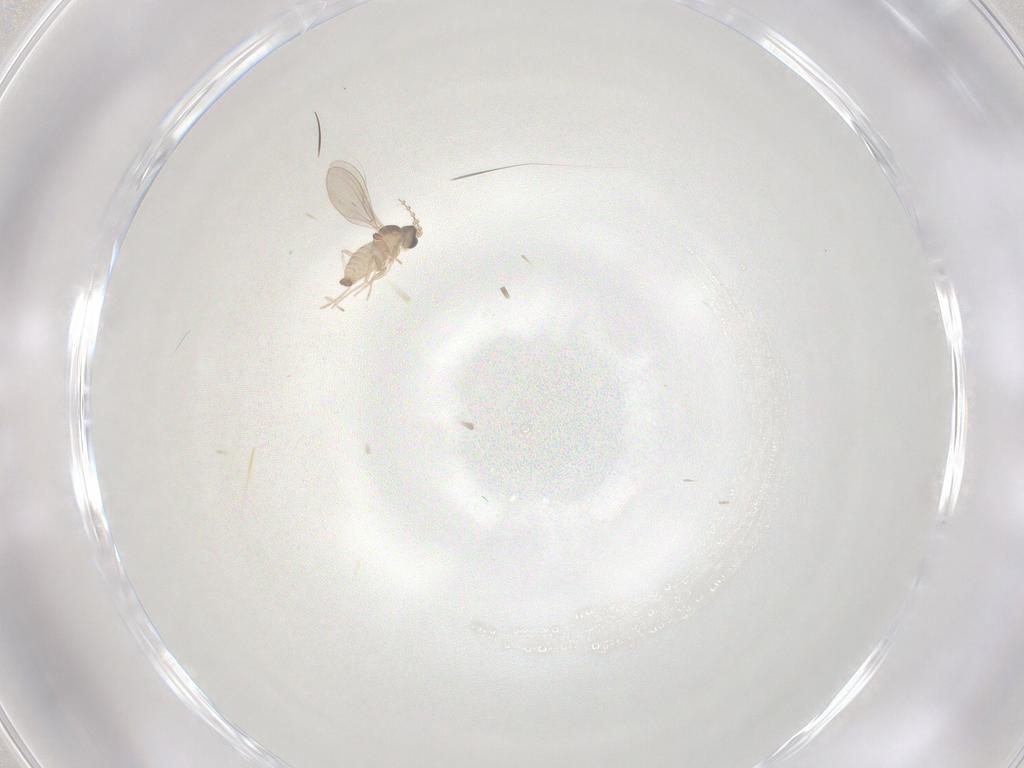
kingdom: Animalia
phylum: Arthropoda
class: Insecta
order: Diptera
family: Cecidomyiidae
